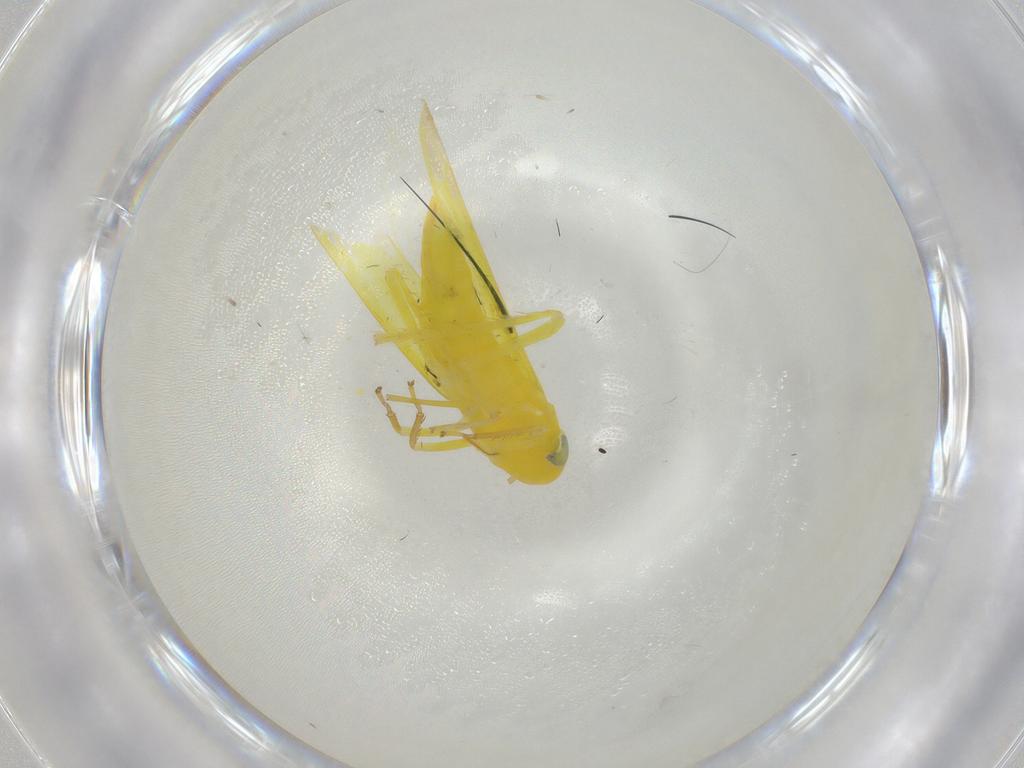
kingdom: Animalia
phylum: Arthropoda
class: Insecta
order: Hemiptera
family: Cicadellidae
